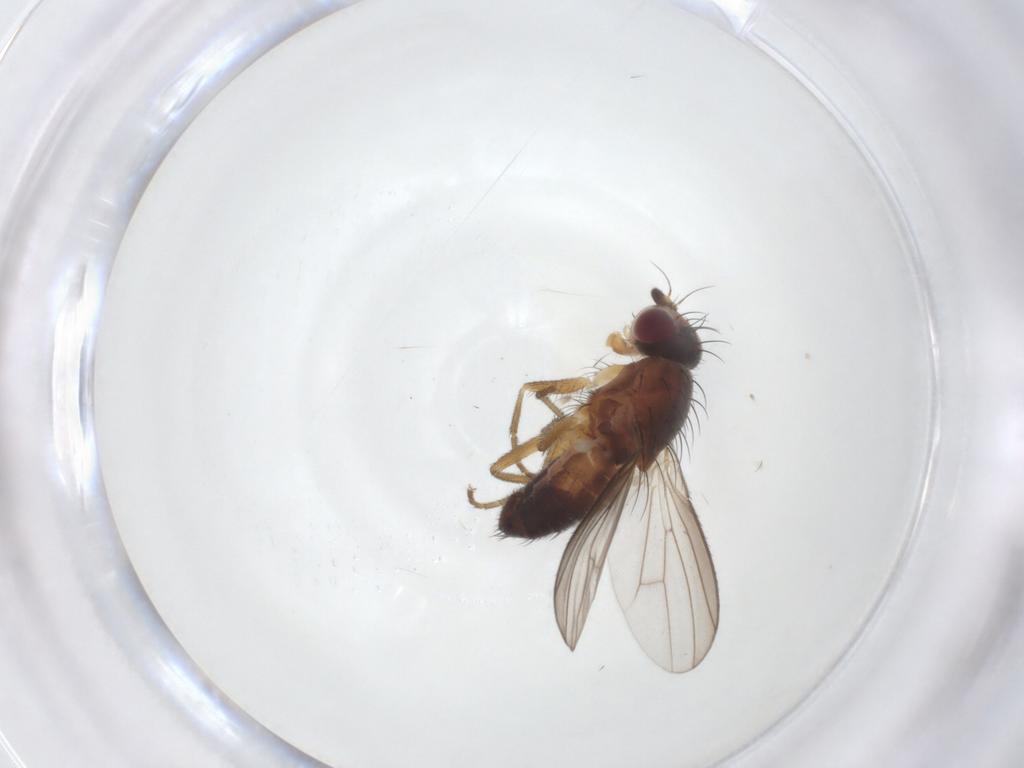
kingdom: Animalia
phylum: Arthropoda
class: Insecta
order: Diptera
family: Heleomyzidae
